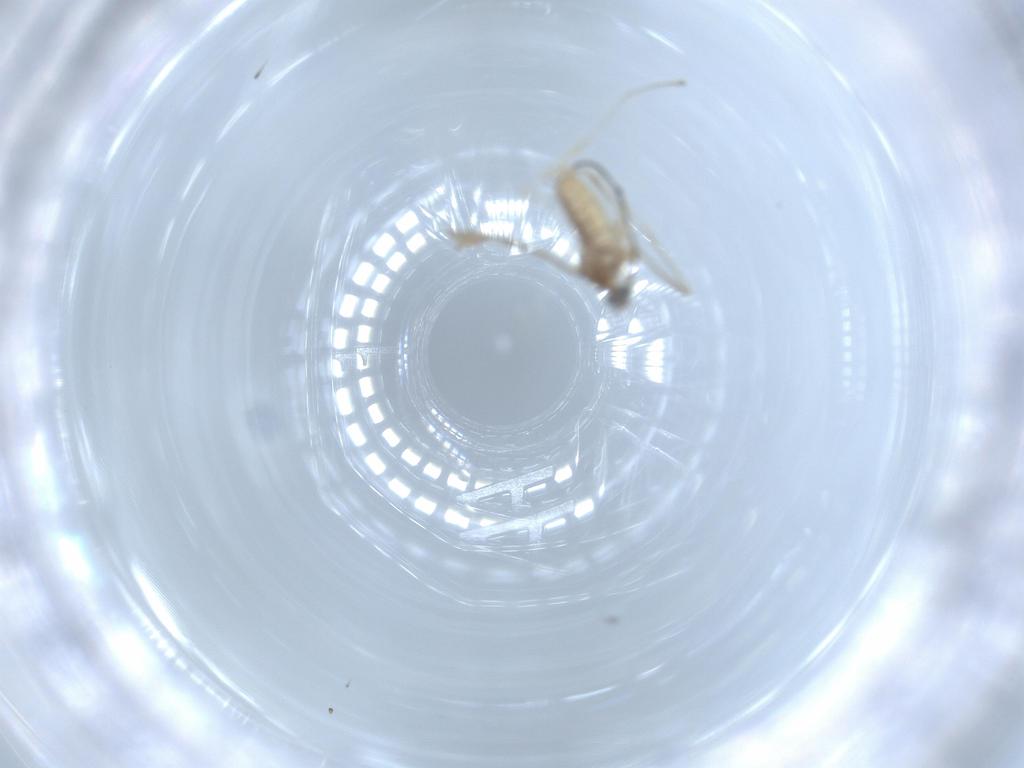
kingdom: Animalia
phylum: Arthropoda
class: Insecta
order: Diptera
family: Cecidomyiidae
